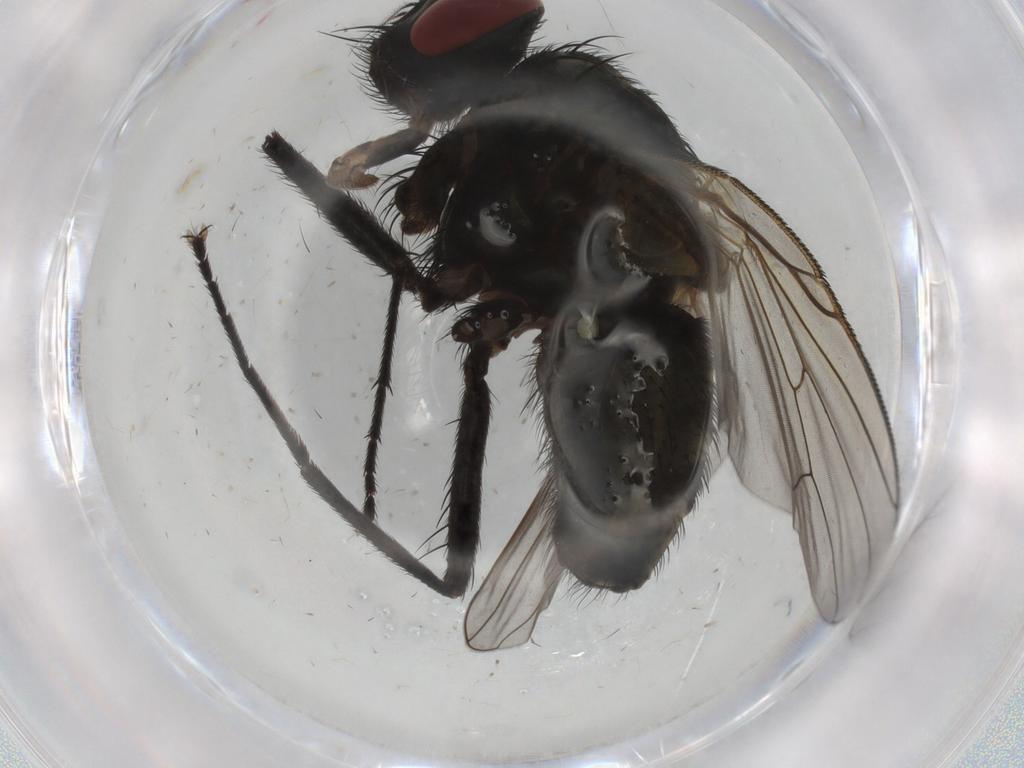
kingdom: Animalia
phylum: Arthropoda
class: Insecta
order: Diptera
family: Muscidae
